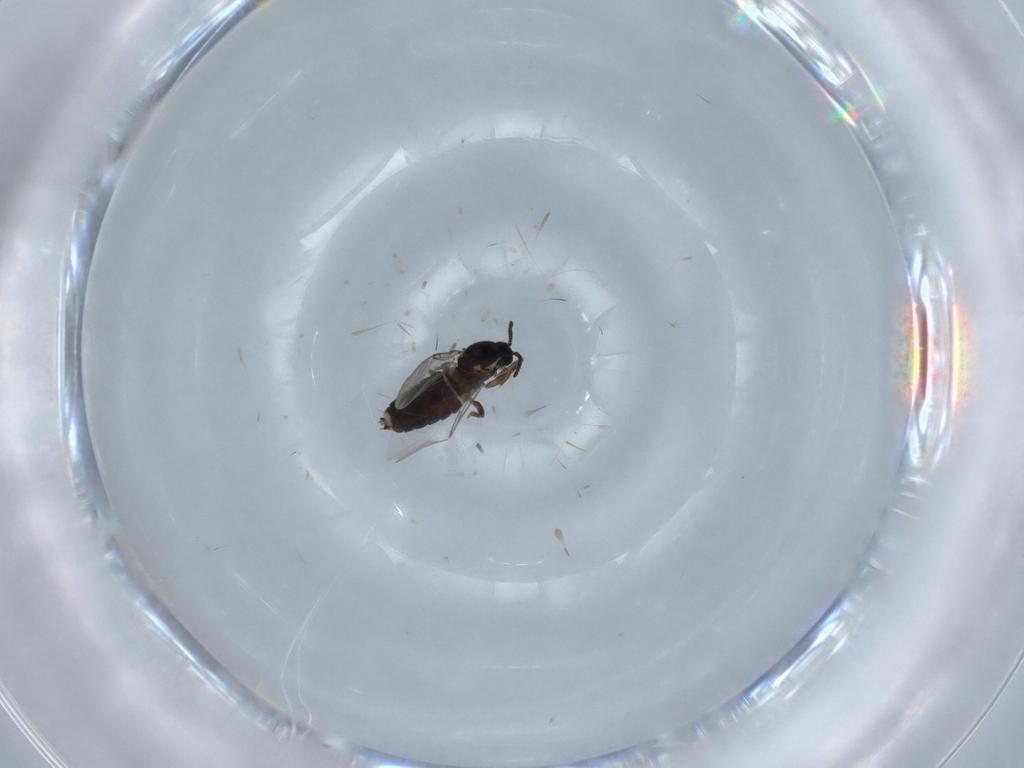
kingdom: Animalia
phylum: Arthropoda
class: Insecta
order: Diptera
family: Scatopsidae
